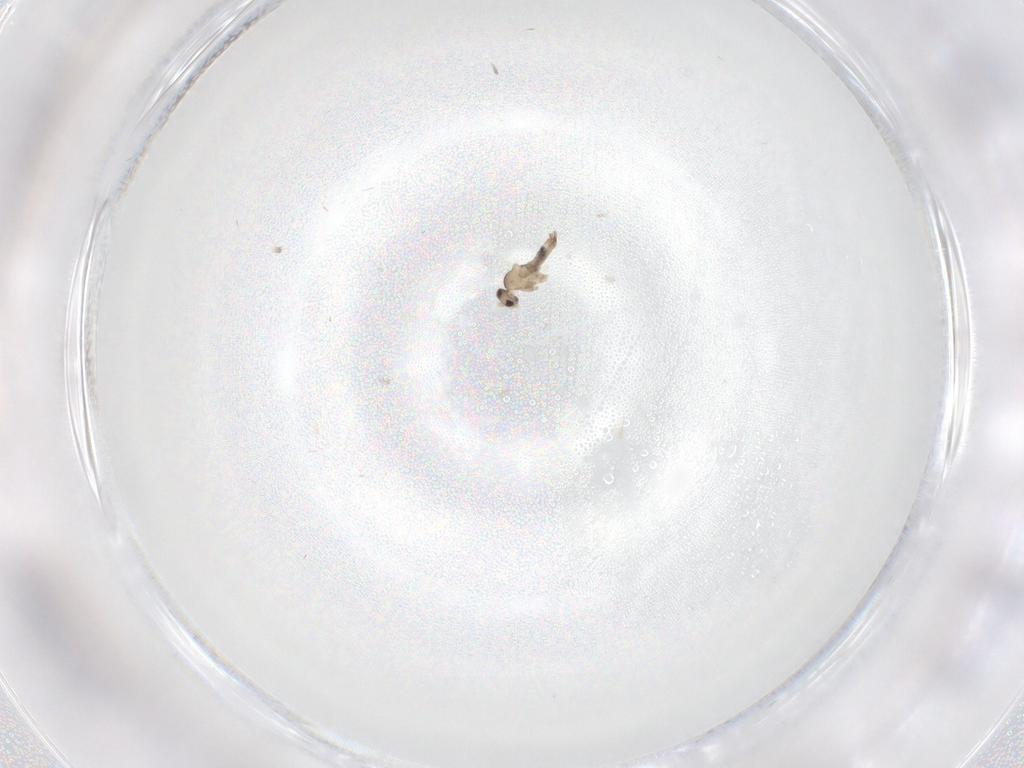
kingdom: Animalia
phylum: Arthropoda
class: Insecta
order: Diptera
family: Cecidomyiidae
